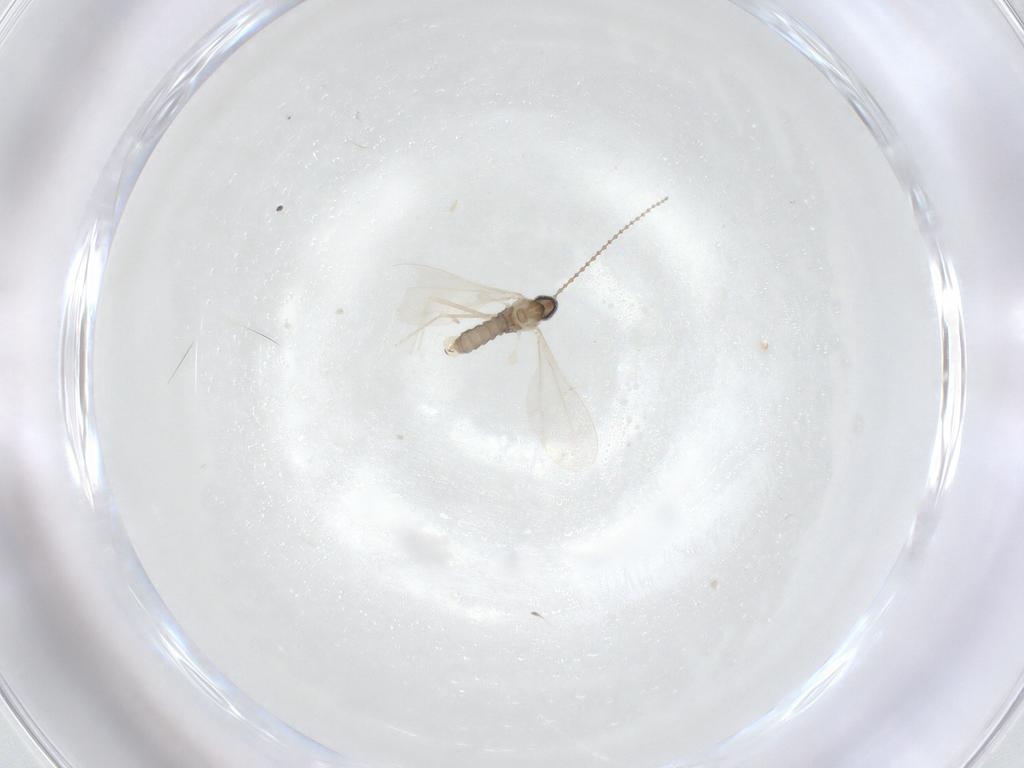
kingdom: Animalia
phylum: Arthropoda
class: Insecta
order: Diptera
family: Cecidomyiidae
